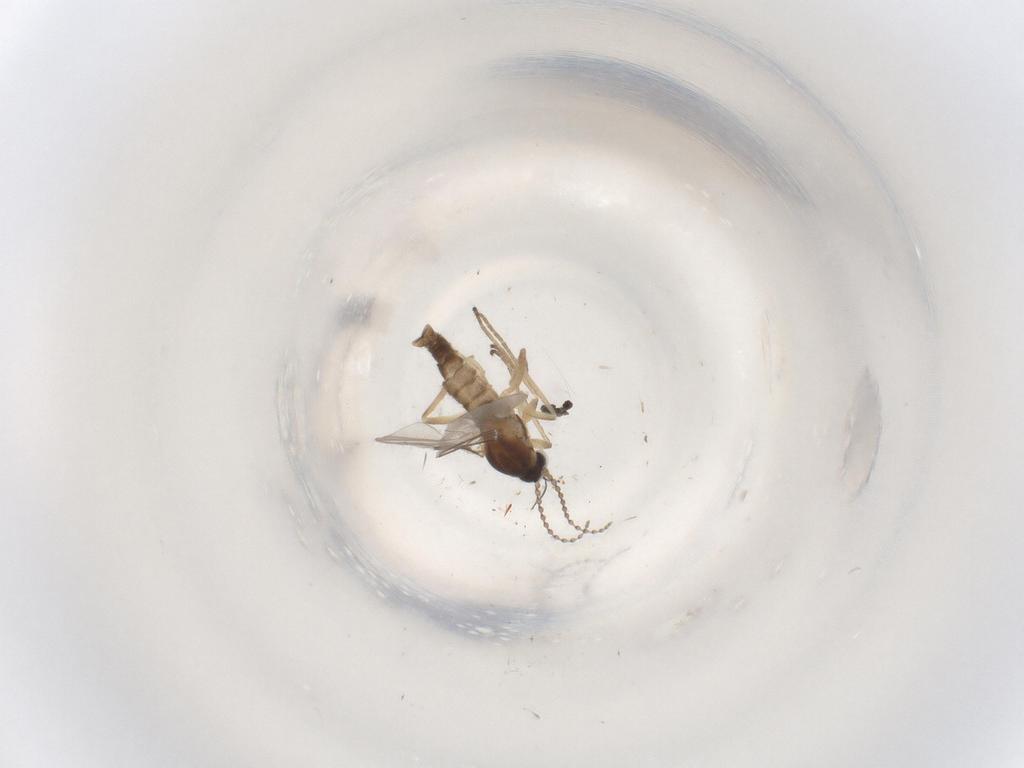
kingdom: Animalia
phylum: Arthropoda
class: Insecta
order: Diptera
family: Cecidomyiidae
